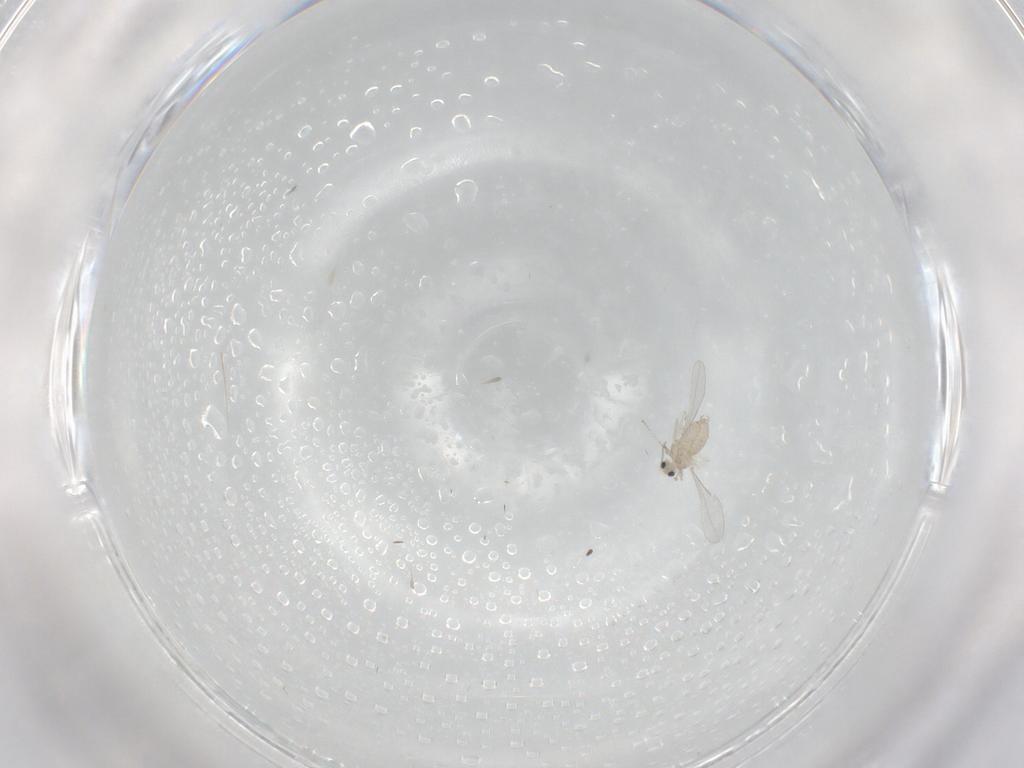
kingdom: Animalia
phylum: Arthropoda
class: Insecta
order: Diptera
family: Cecidomyiidae
